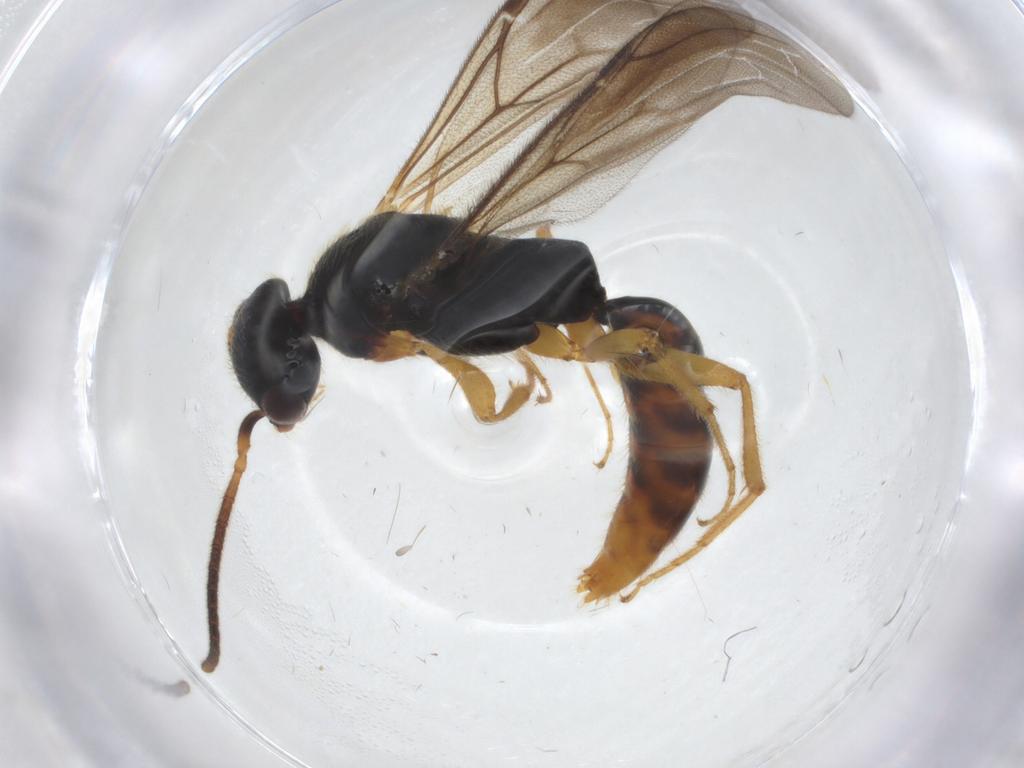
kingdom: Animalia
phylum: Arthropoda
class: Insecta
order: Hymenoptera
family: Bethylidae
